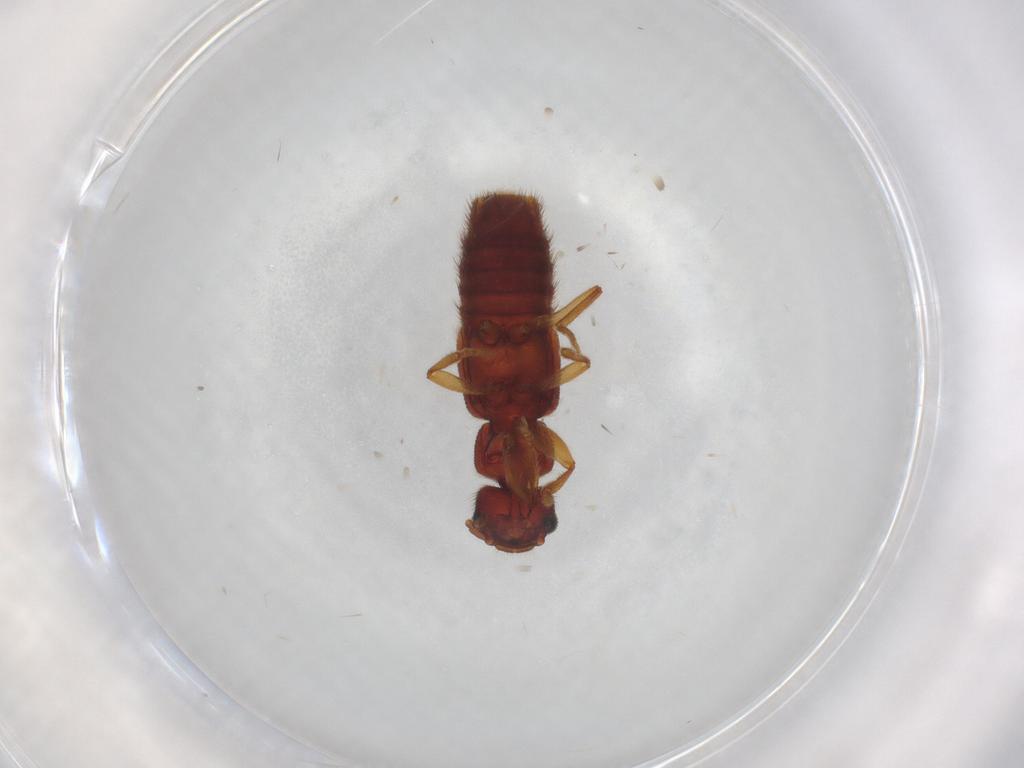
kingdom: Animalia
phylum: Arthropoda
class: Insecta
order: Coleoptera
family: Staphylinidae
